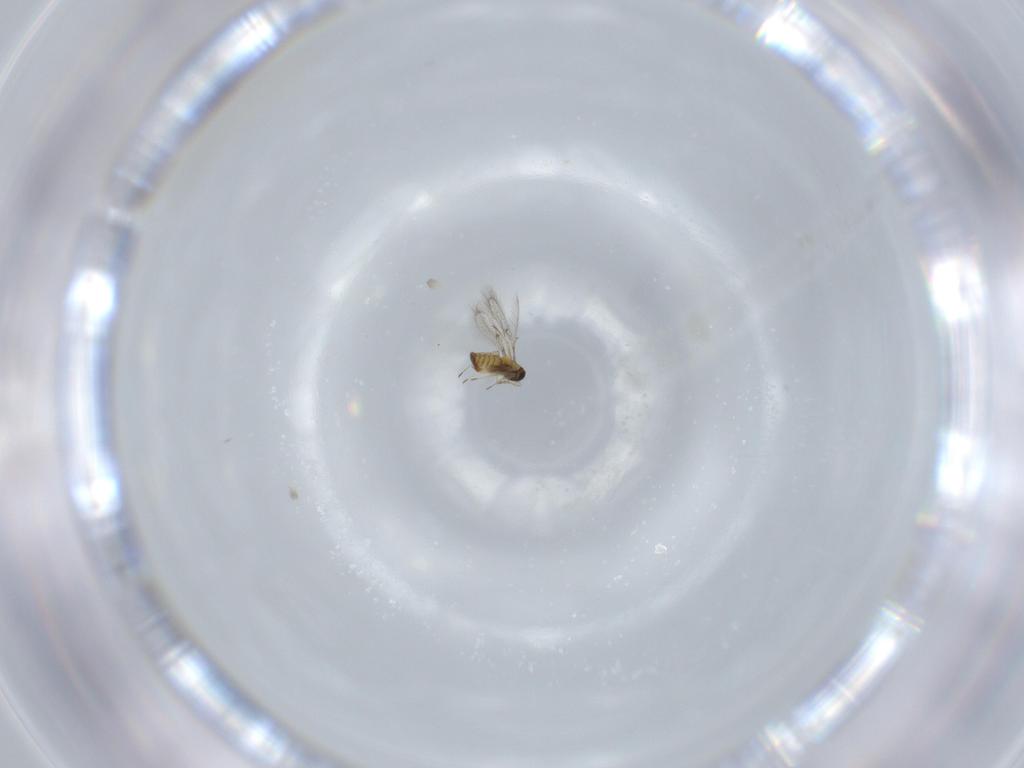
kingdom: Animalia
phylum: Arthropoda
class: Insecta
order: Hymenoptera
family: Trichogrammatidae
